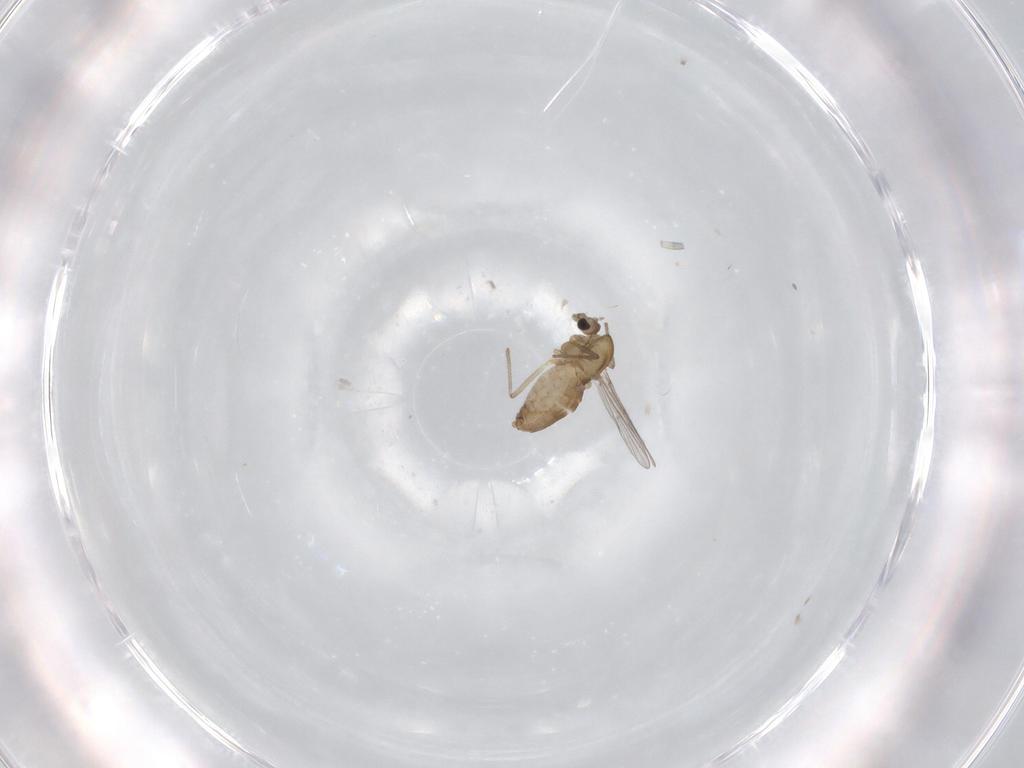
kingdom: Animalia
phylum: Arthropoda
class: Insecta
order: Diptera
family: Chironomidae
